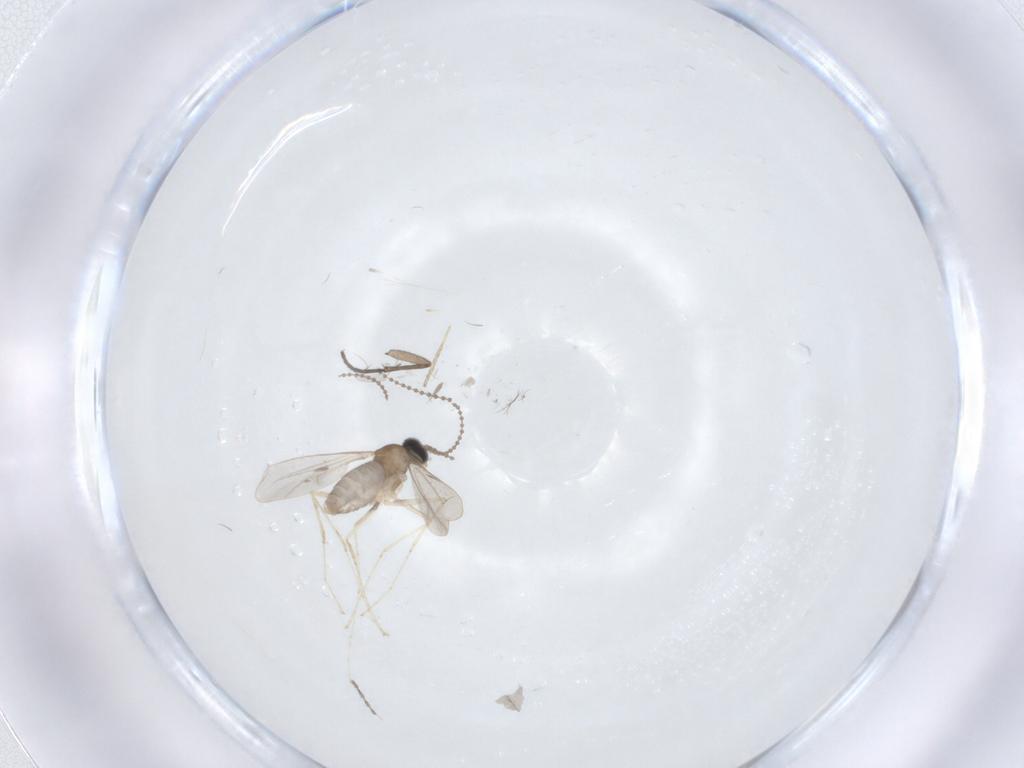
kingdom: Animalia
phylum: Arthropoda
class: Insecta
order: Diptera
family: Cecidomyiidae
